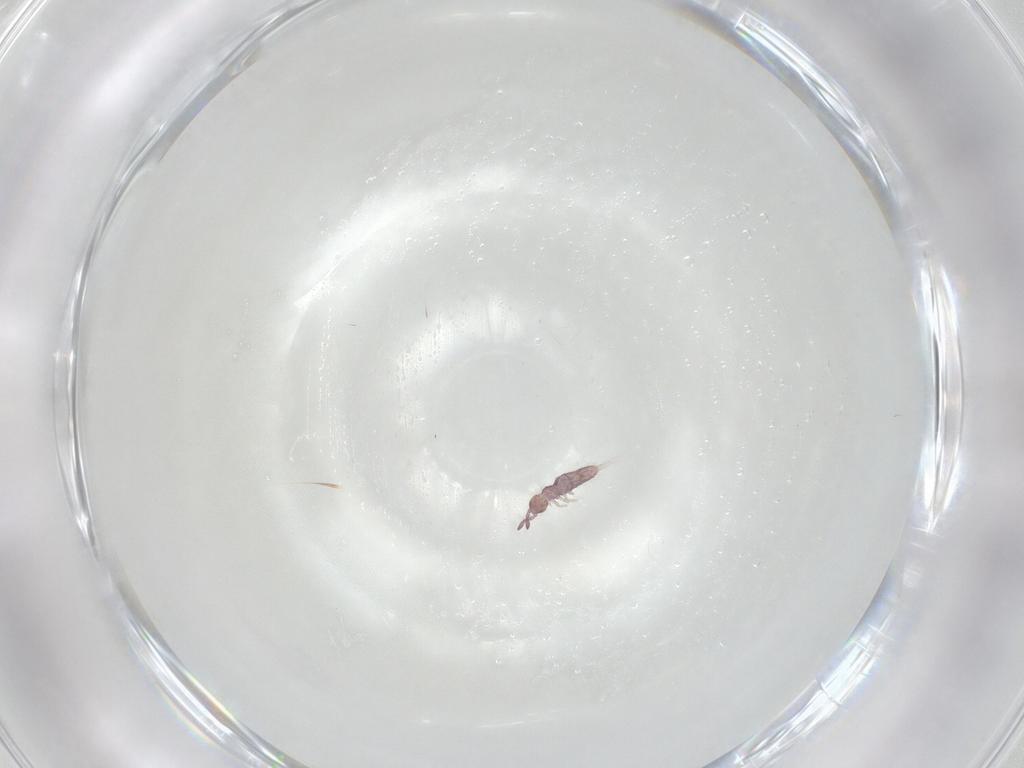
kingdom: Animalia
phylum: Arthropoda
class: Collembola
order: Entomobryomorpha
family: Entomobryidae
